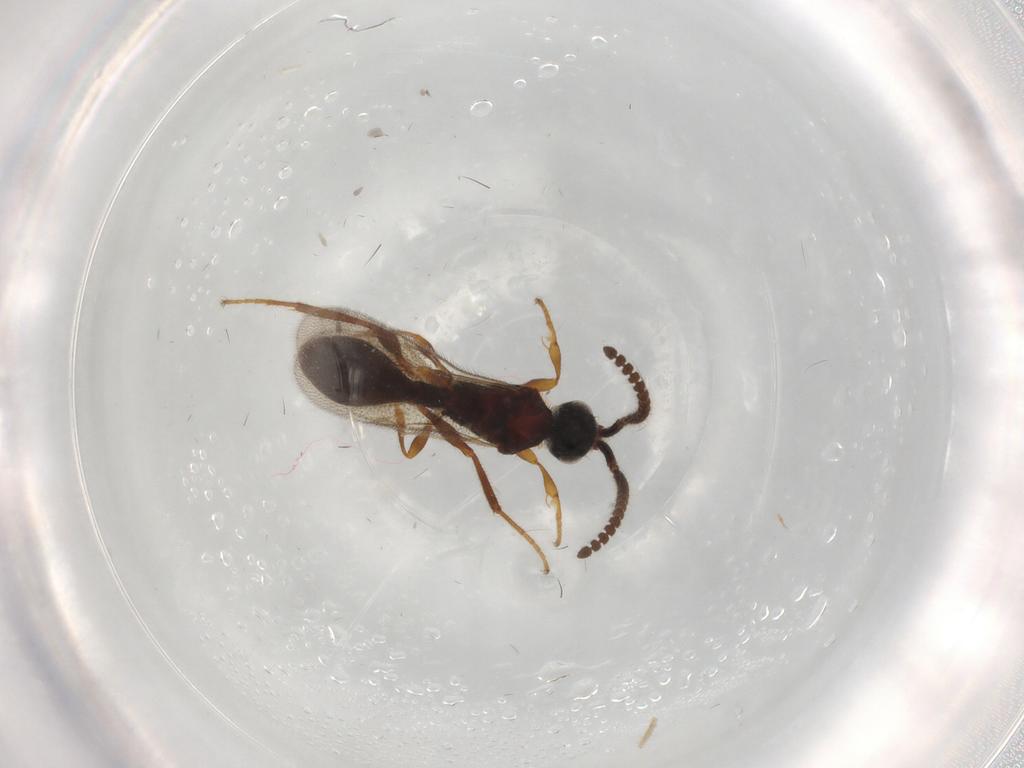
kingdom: Animalia
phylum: Arthropoda
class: Insecta
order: Hymenoptera
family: Diapriidae
